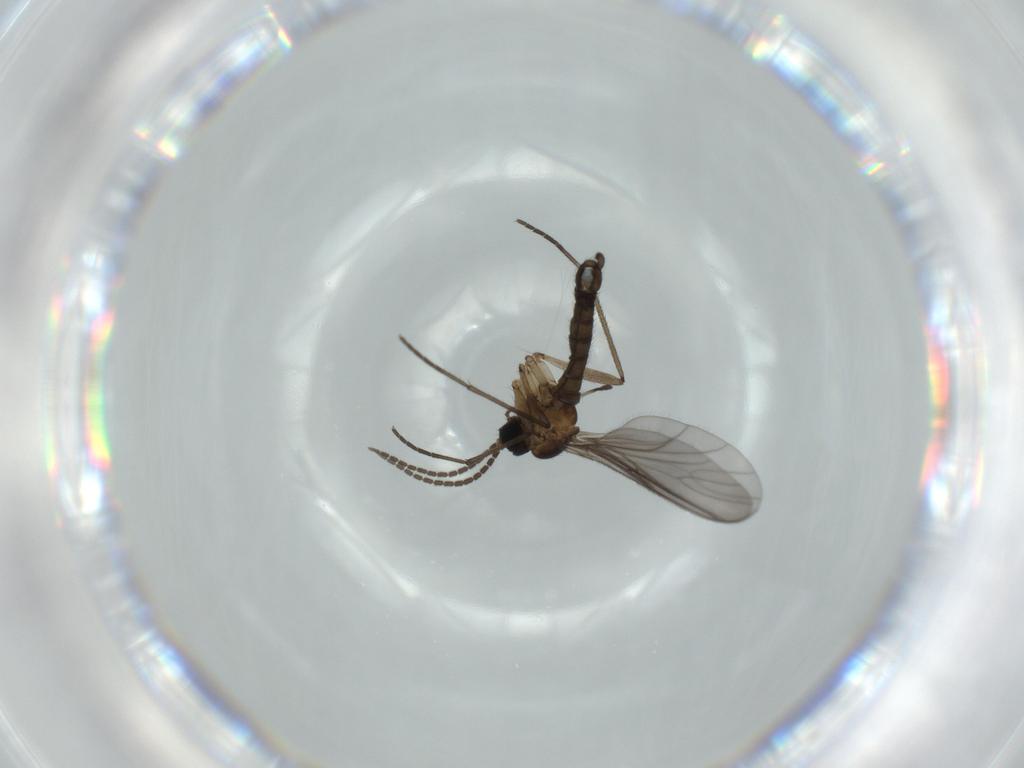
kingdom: Animalia
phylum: Arthropoda
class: Insecta
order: Diptera
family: Sciaridae
